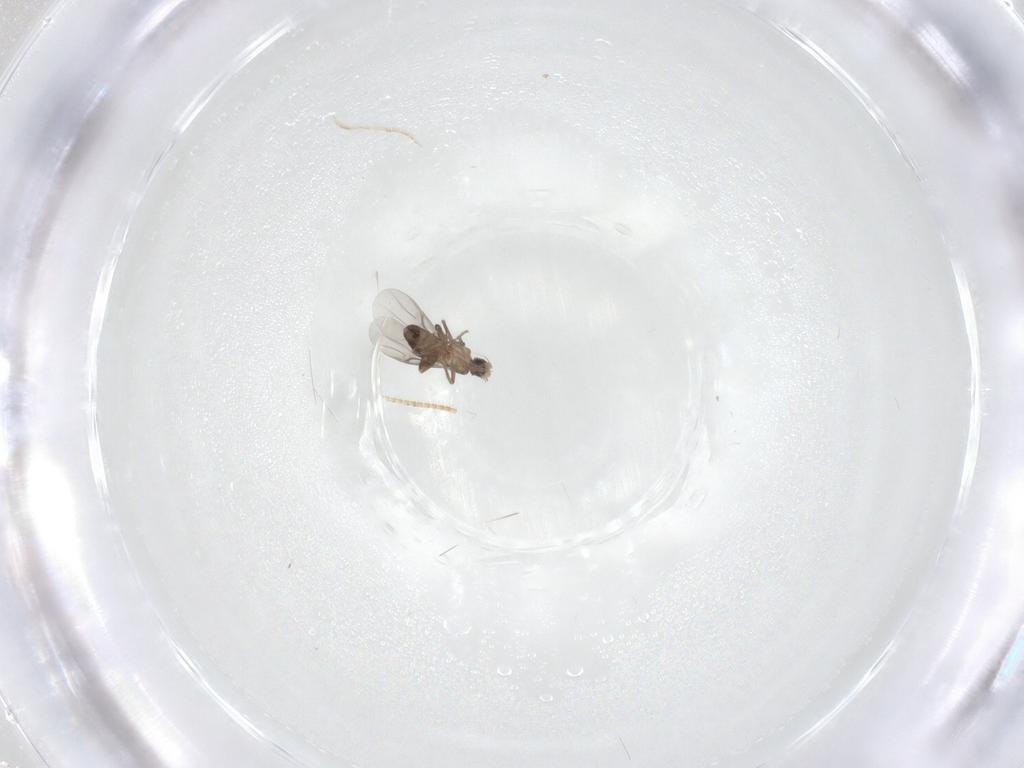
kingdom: Animalia
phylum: Arthropoda
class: Insecta
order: Diptera
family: Chironomidae
